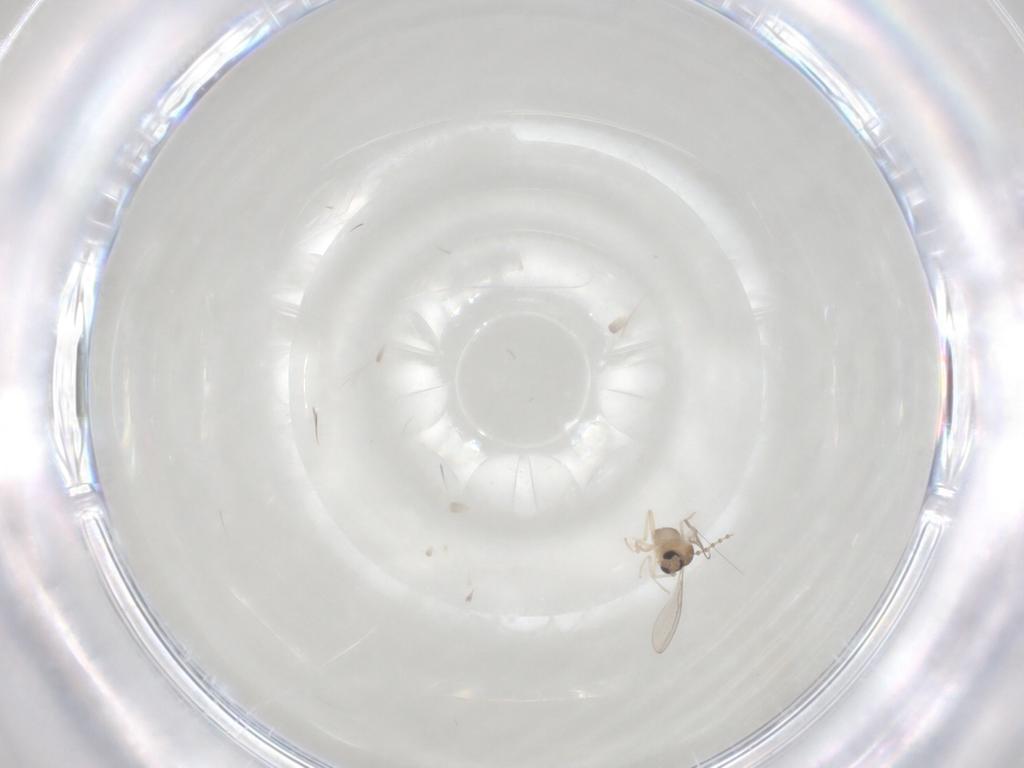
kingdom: Animalia
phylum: Arthropoda
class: Insecta
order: Diptera
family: Cecidomyiidae
